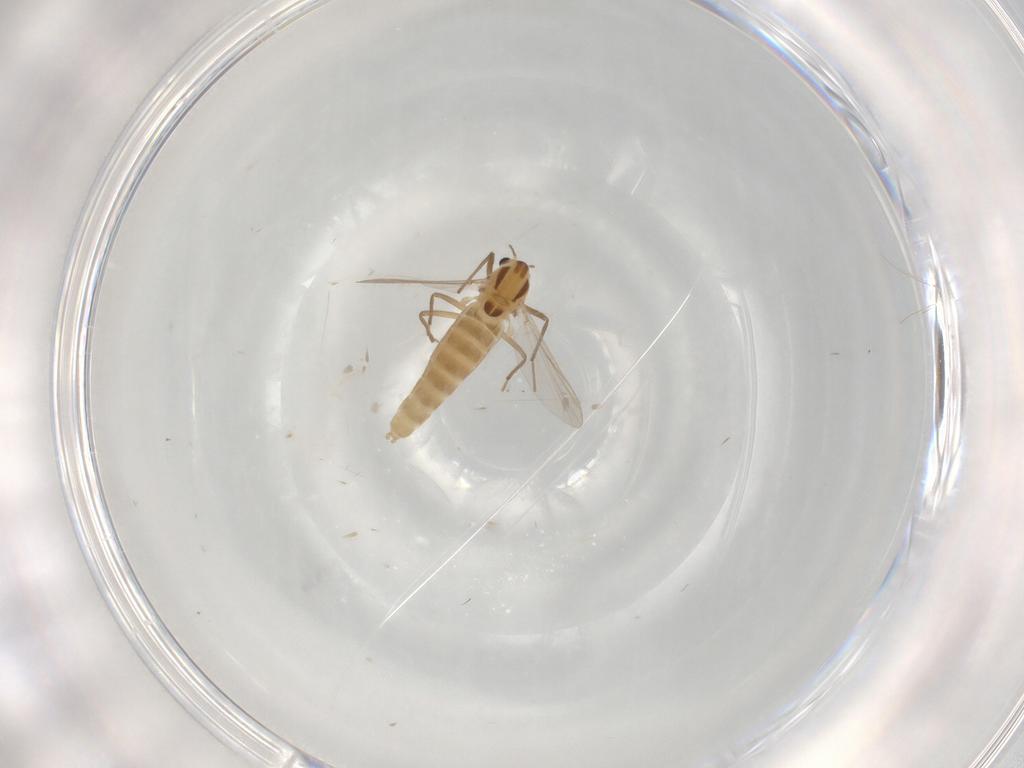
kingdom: Animalia
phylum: Arthropoda
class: Insecta
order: Diptera
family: Chironomidae
